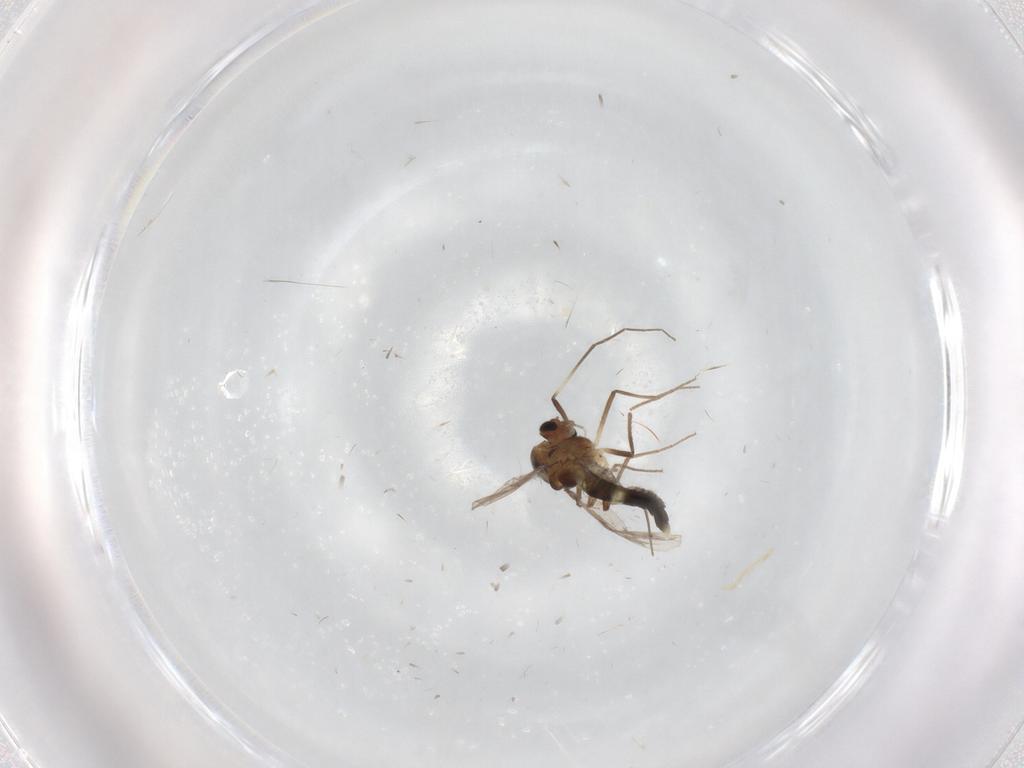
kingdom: Animalia
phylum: Arthropoda
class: Insecta
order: Diptera
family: Chironomidae
